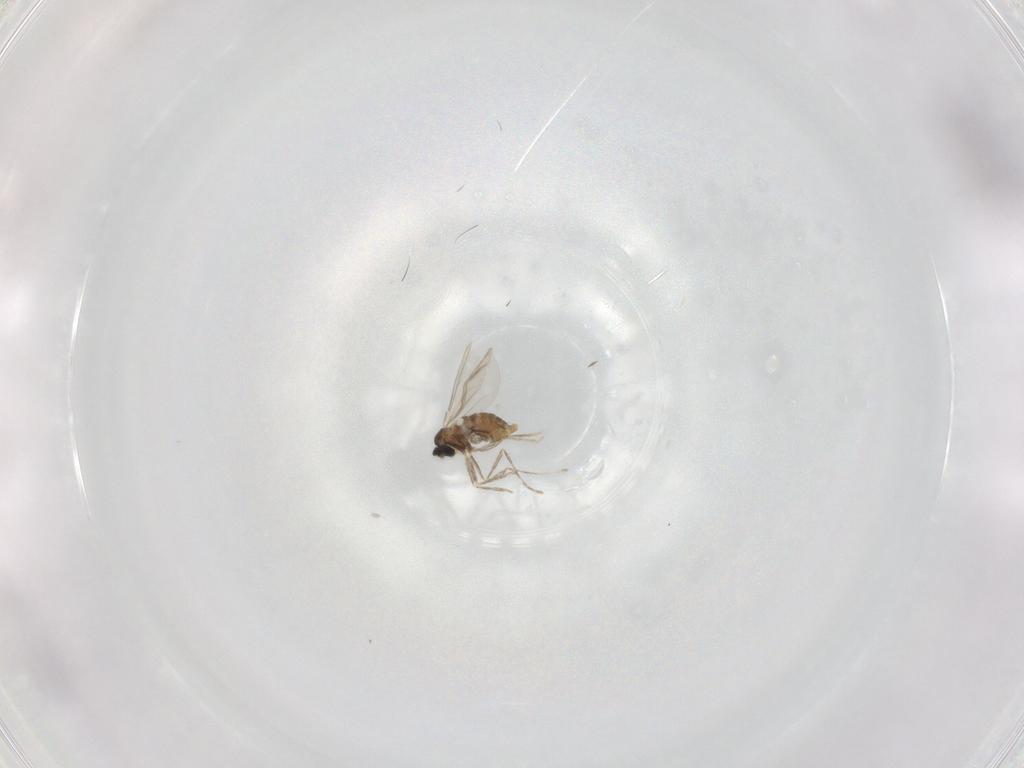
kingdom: Animalia
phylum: Arthropoda
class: Insecta
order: Diptera
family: Cecidomyiidae
